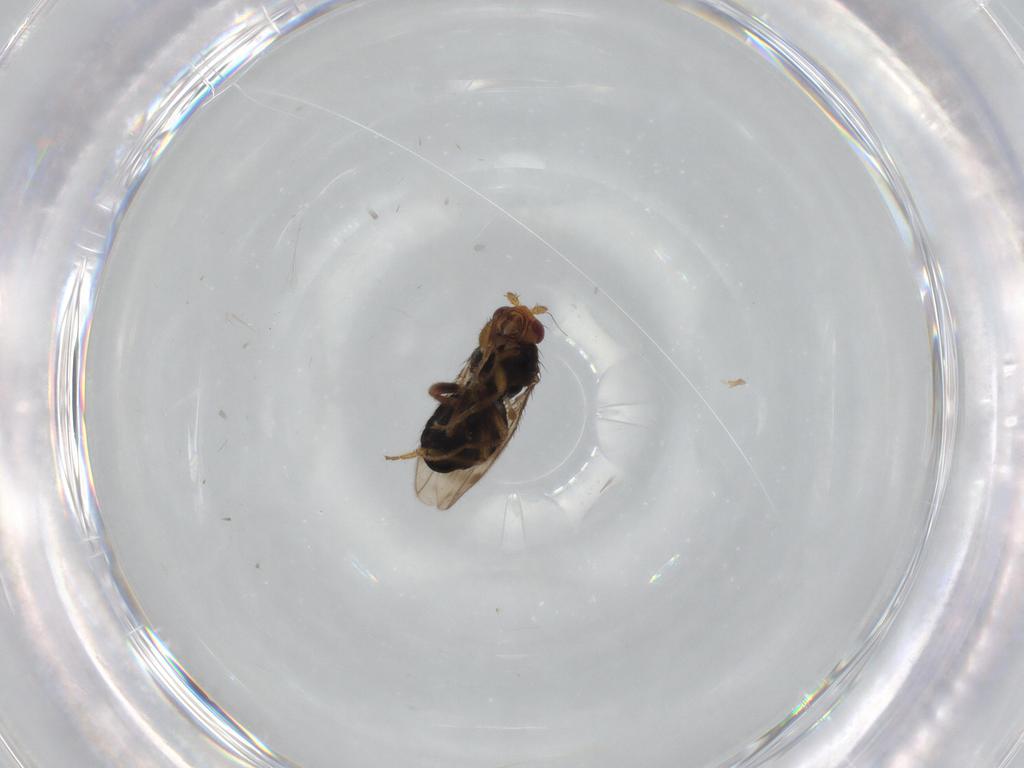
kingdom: Animalia
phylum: Arthropoda
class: Insecta
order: Diptera
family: Sphaeroceridae
